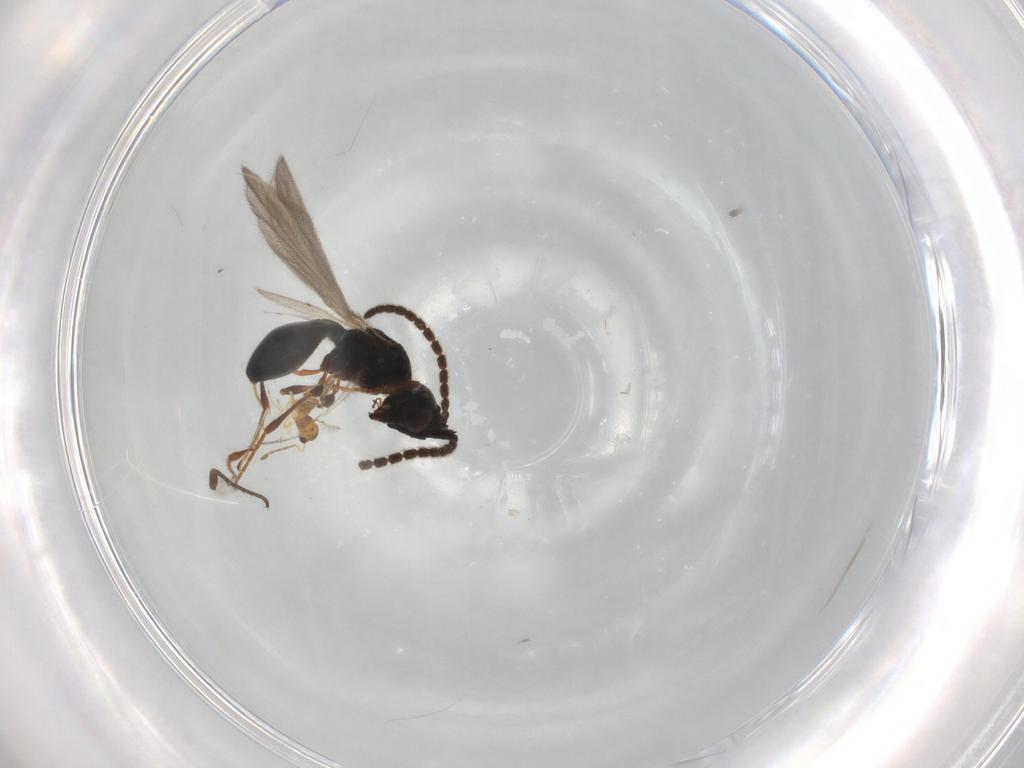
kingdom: Animalia
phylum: Arthropoda
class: Insecta
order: Hymenoptera
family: Diapriidae
